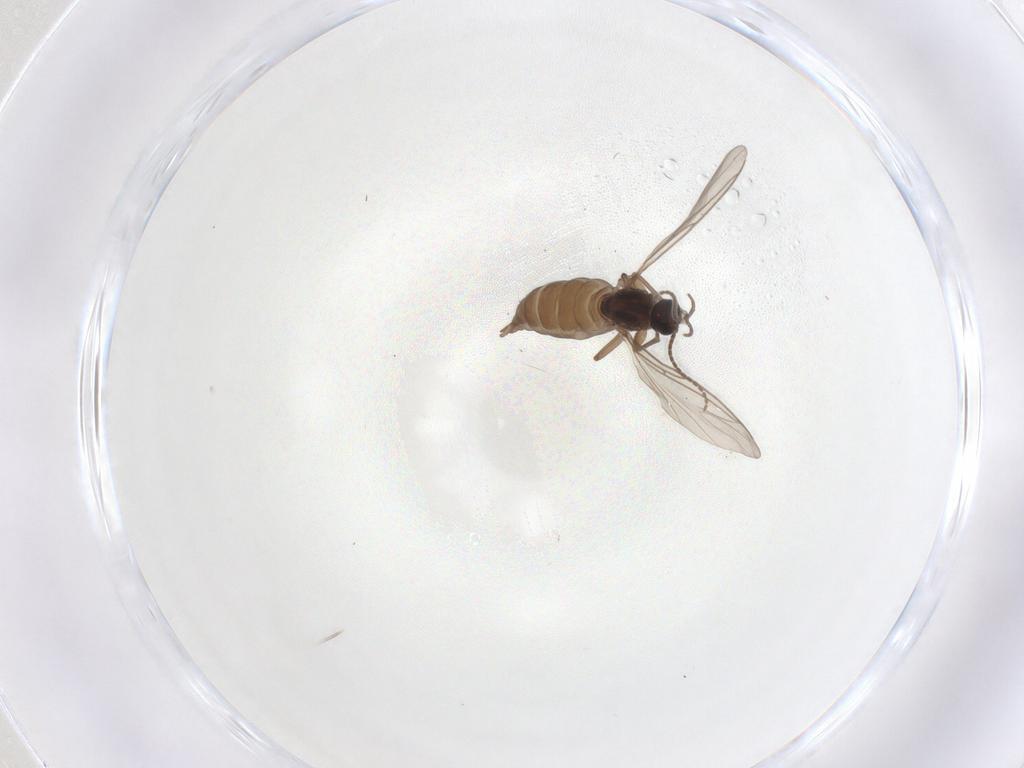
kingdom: Animalia
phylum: Arthropoda
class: Insecta
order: Diptera
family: Sciaridae
